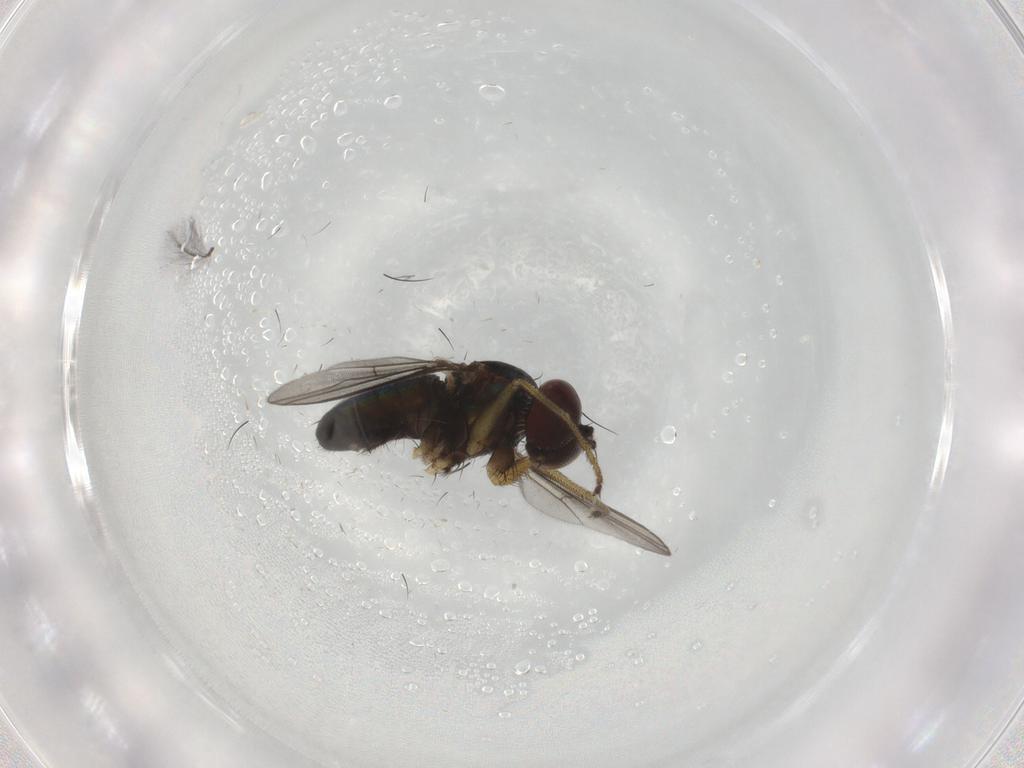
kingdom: Animalia
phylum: Arthropoda
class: Insecta
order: Diptera
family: Dolichopodidae
